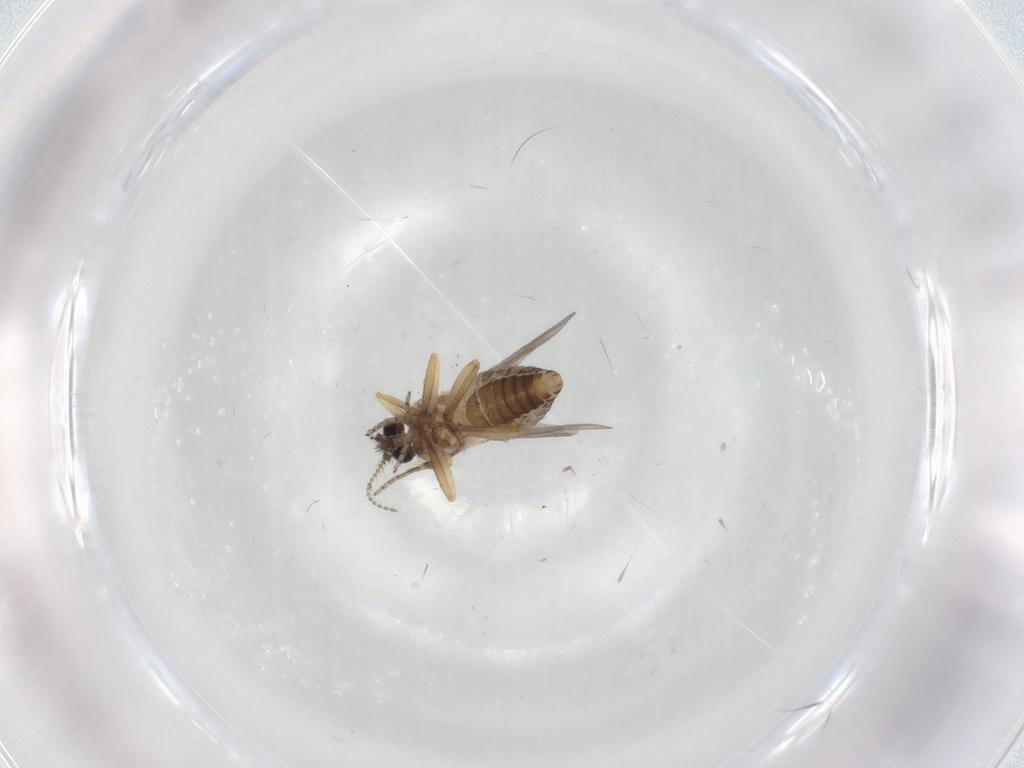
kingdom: Animalia
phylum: Arthropoda
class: Insecta
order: Diptera
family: Ceratopogonidae
